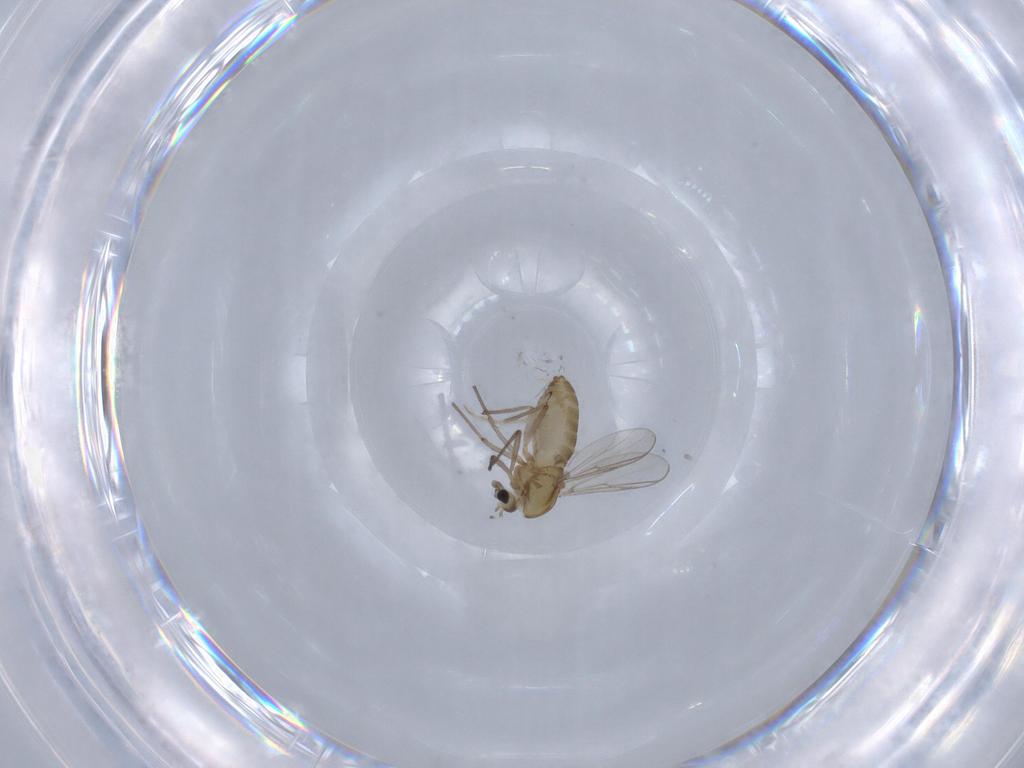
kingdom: Animalia
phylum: Arthropoda
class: Insecta
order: Diptera
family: Chironomidae
